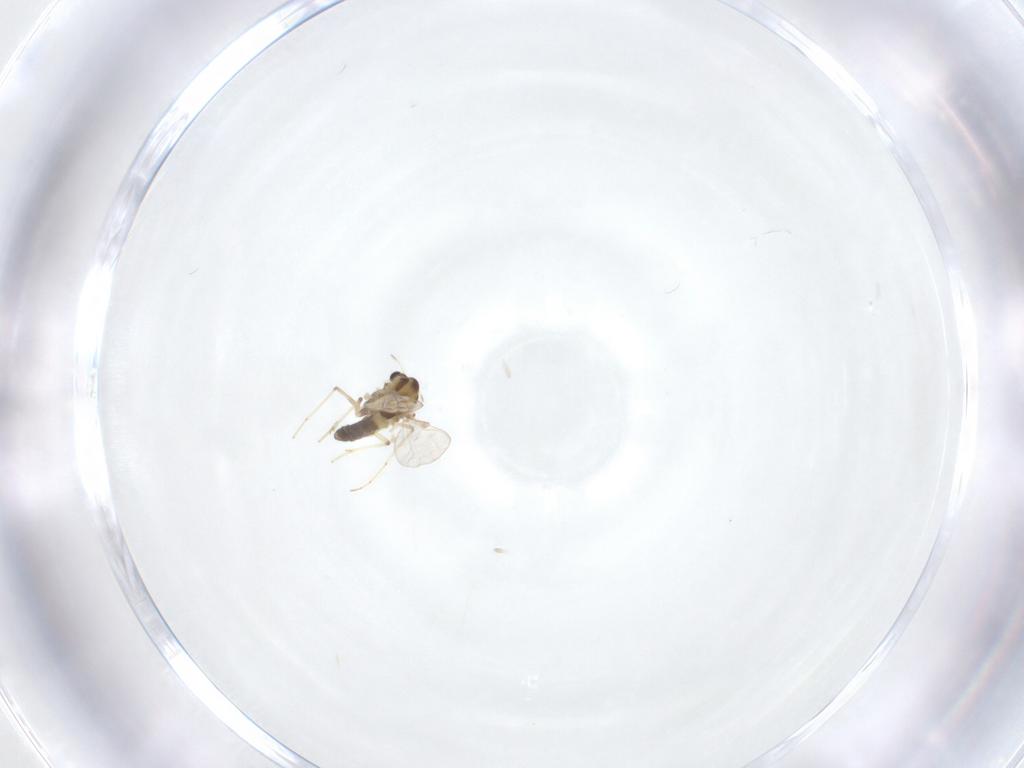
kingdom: Animalia
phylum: Arthropoda
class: Insecta
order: Diptera
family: Chironomidae
